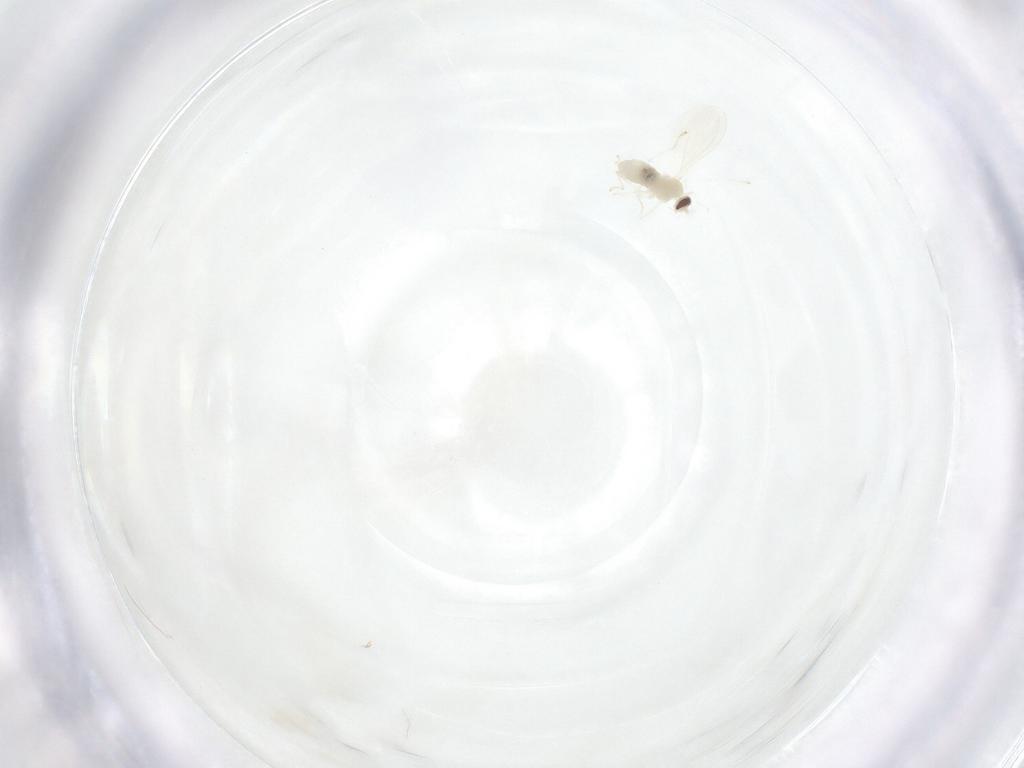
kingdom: Animalia
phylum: Arthropoda
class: Insecta
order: Diptera
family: Cecidomyiidae
